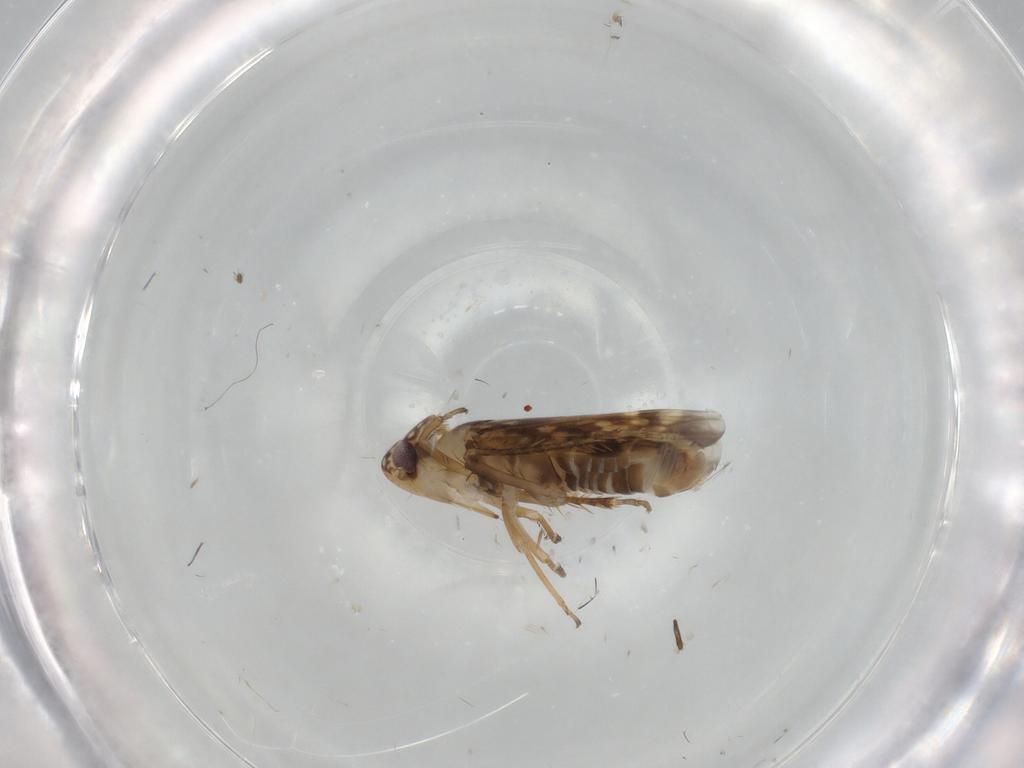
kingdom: Animalia
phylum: Arthropoda
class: Insecta
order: Hemiptera
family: Cicadellidae
